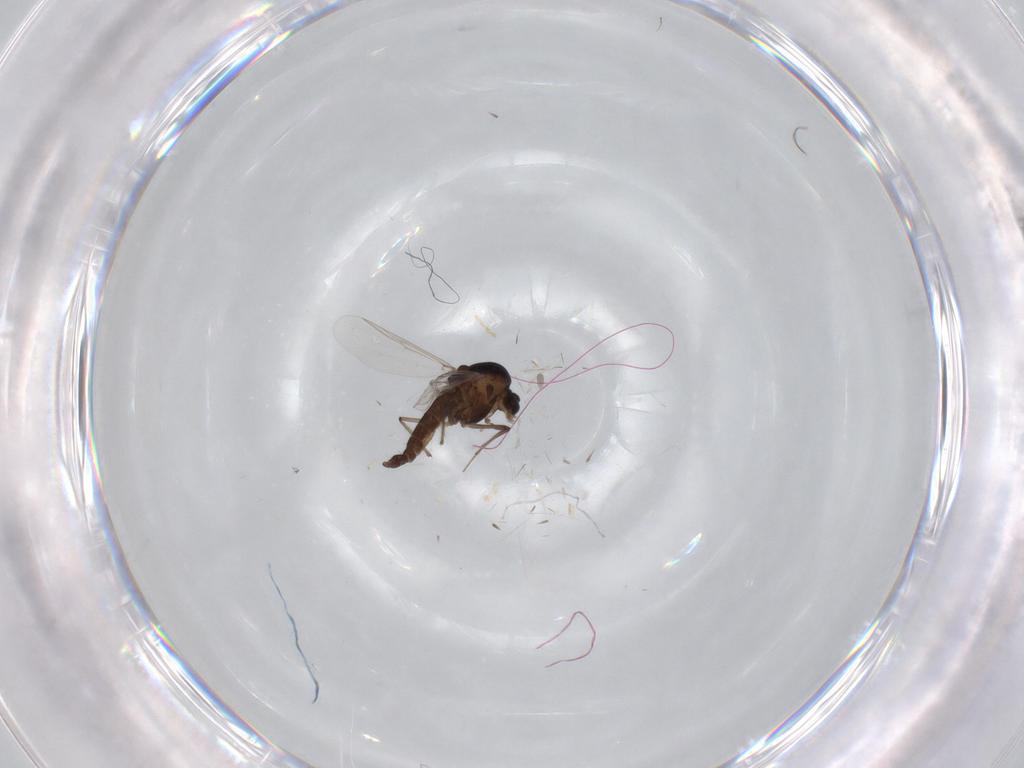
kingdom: Animalia
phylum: Arthropoda
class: Insecta
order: Diptera
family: Chironomidae
